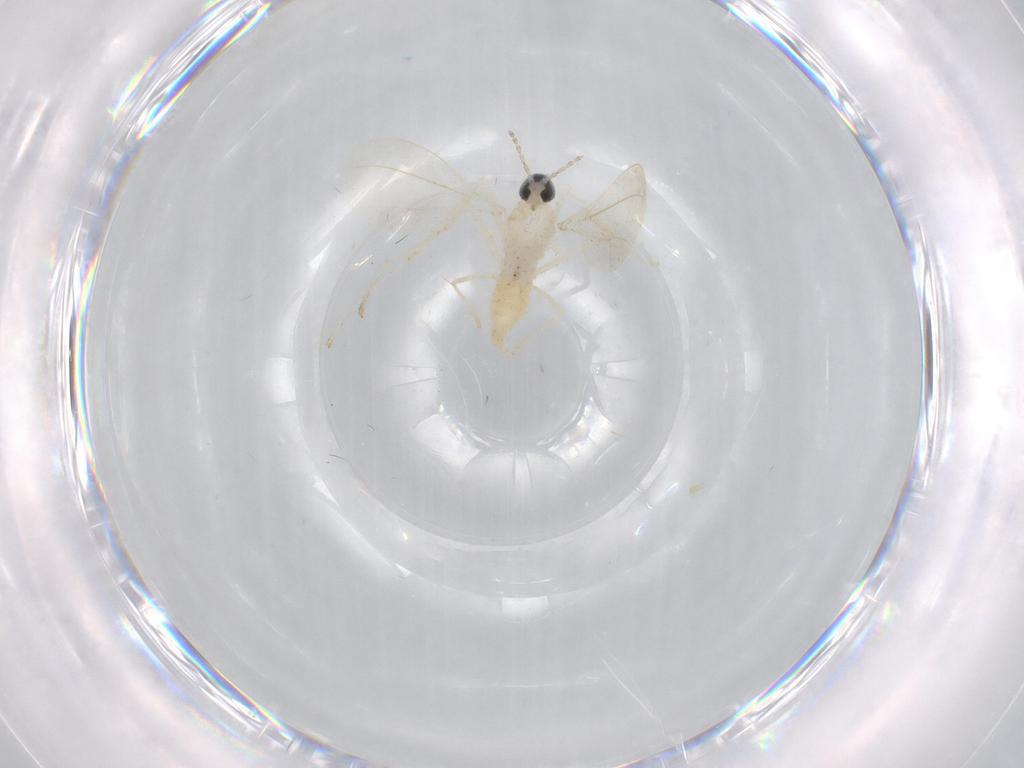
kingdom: Animalia
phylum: Arthropoda
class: Insecta
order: Diptera
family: Cecidomyiidae
